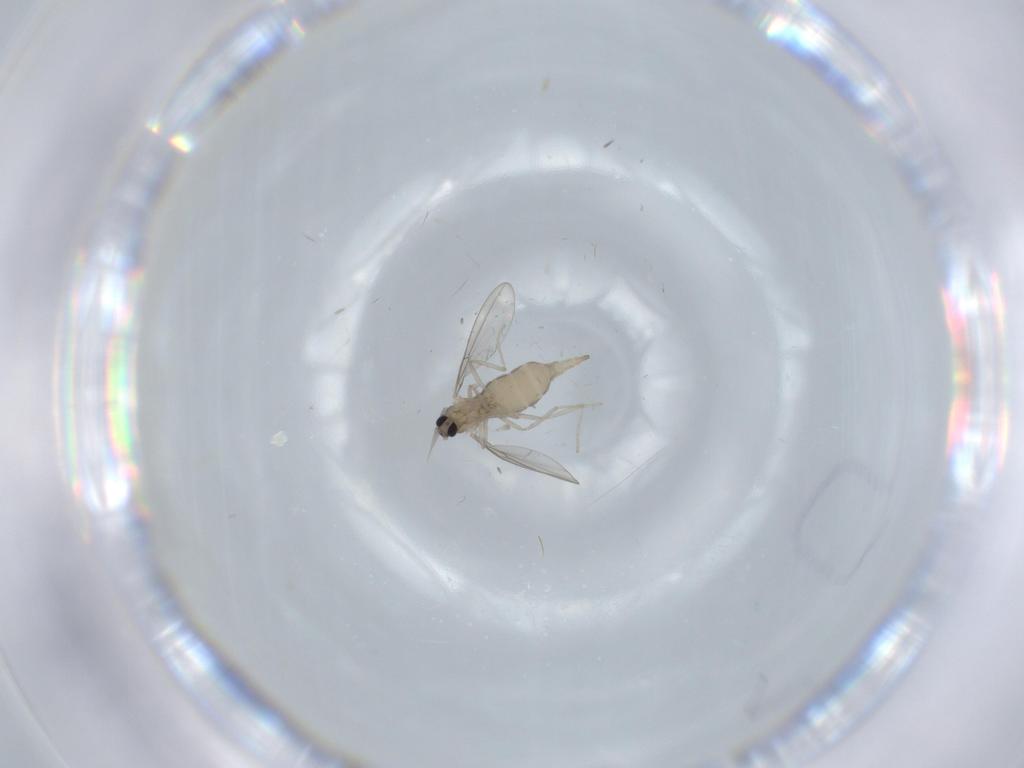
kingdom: Animalia
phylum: Arthropoda
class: Insecta
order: Diptera
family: Cecidomyiidae
